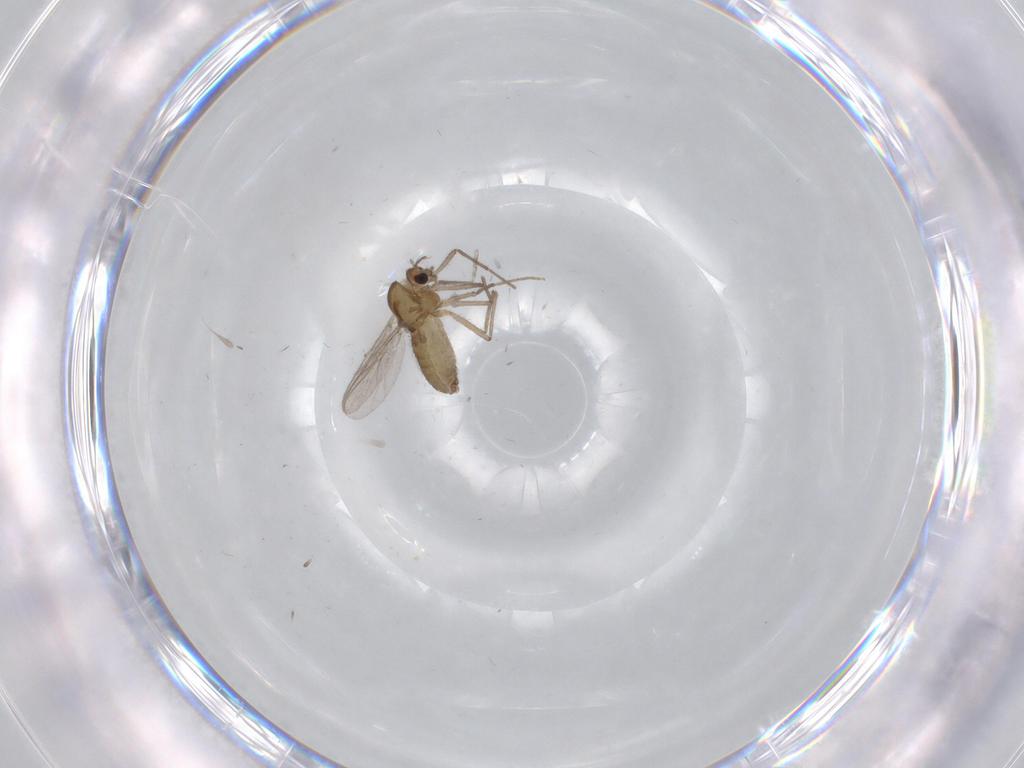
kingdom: Animalia
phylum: Arthropoda
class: Insecta
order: Diptera
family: Chironomidae
